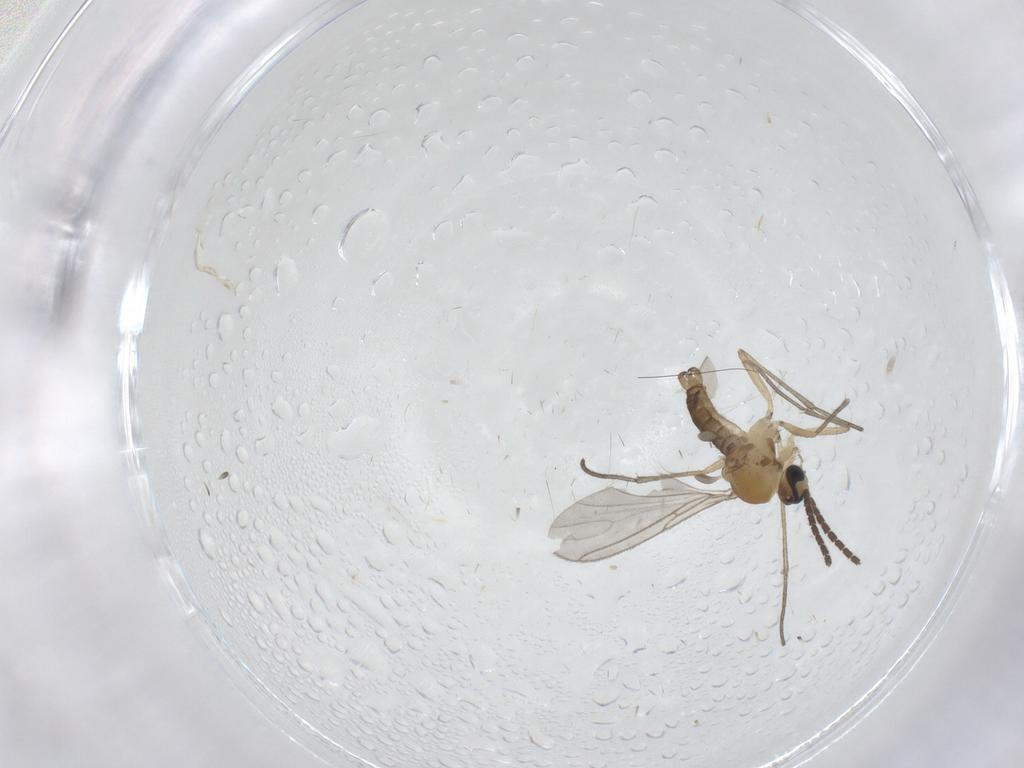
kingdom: Animalia
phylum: Arthropoda
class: Insecta
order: Diptera
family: Sciaridae
